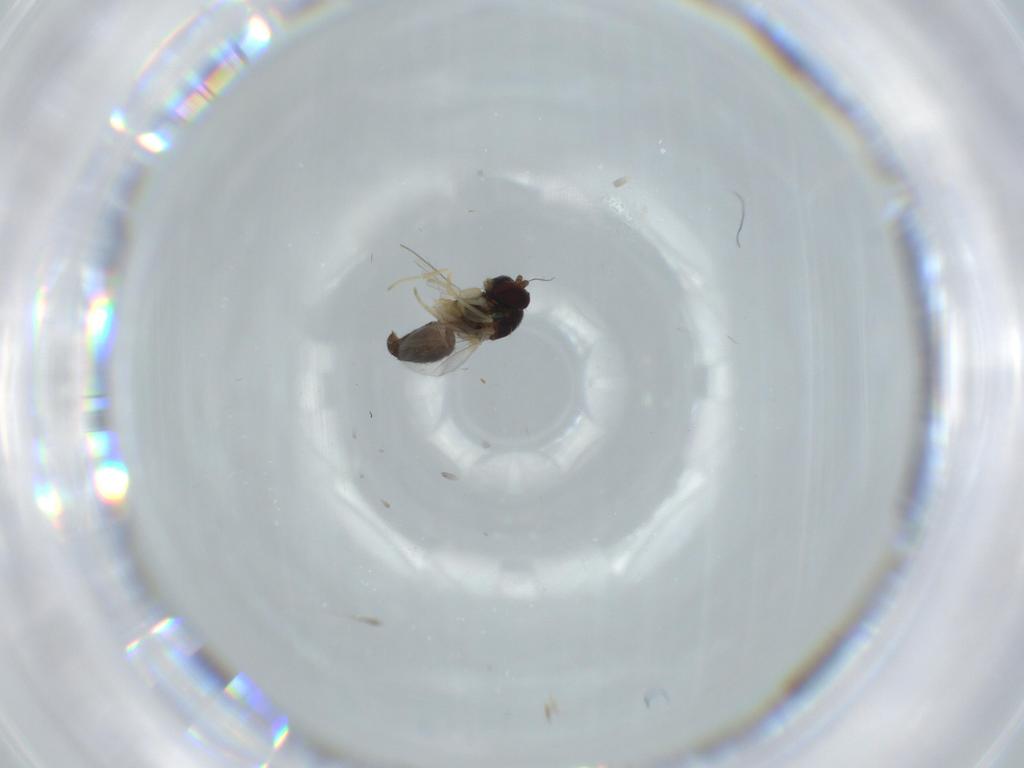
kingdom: Animalia
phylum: Arthropoda
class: Insecta
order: Diptera
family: Dolichopodidae
